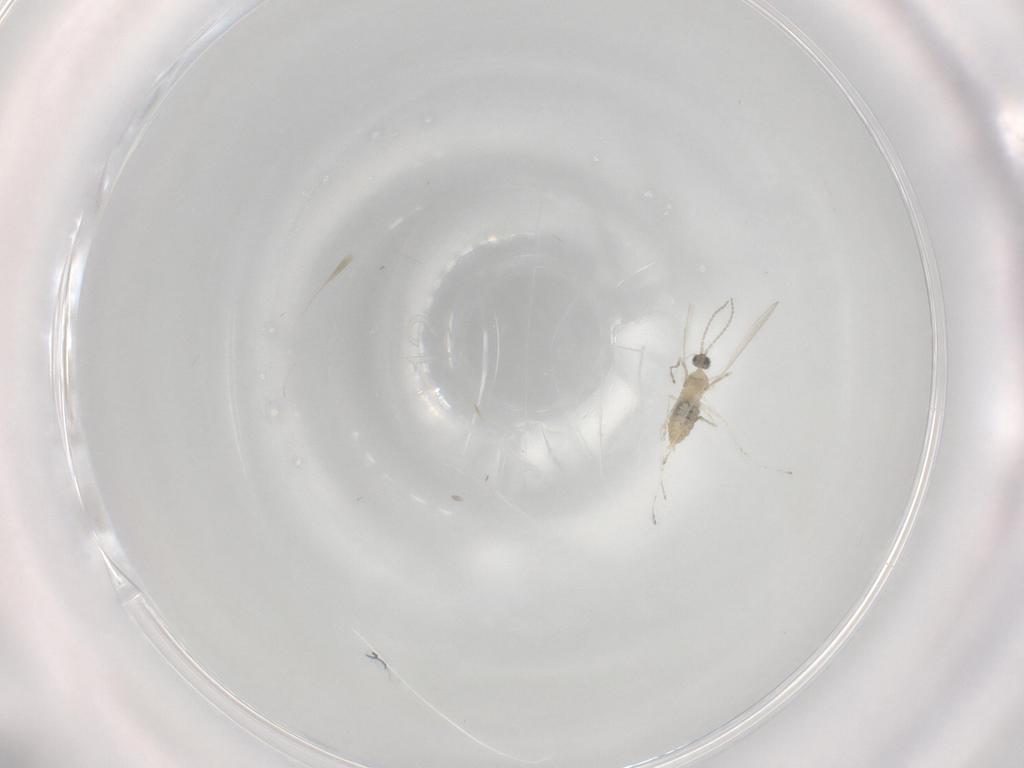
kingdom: Animalia
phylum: Arthropoda
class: Insecta
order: Diptera
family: Cecidomyiidae
